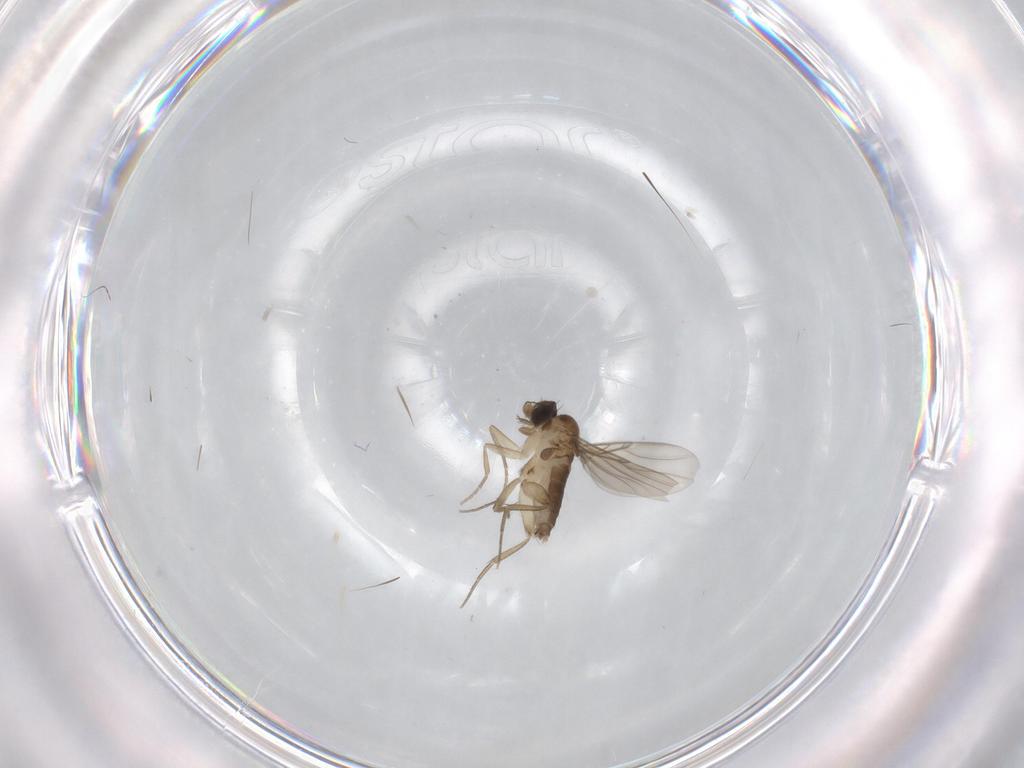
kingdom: Animalia
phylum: Arthropoda
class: Insecta
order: Diptera
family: Phoridae
